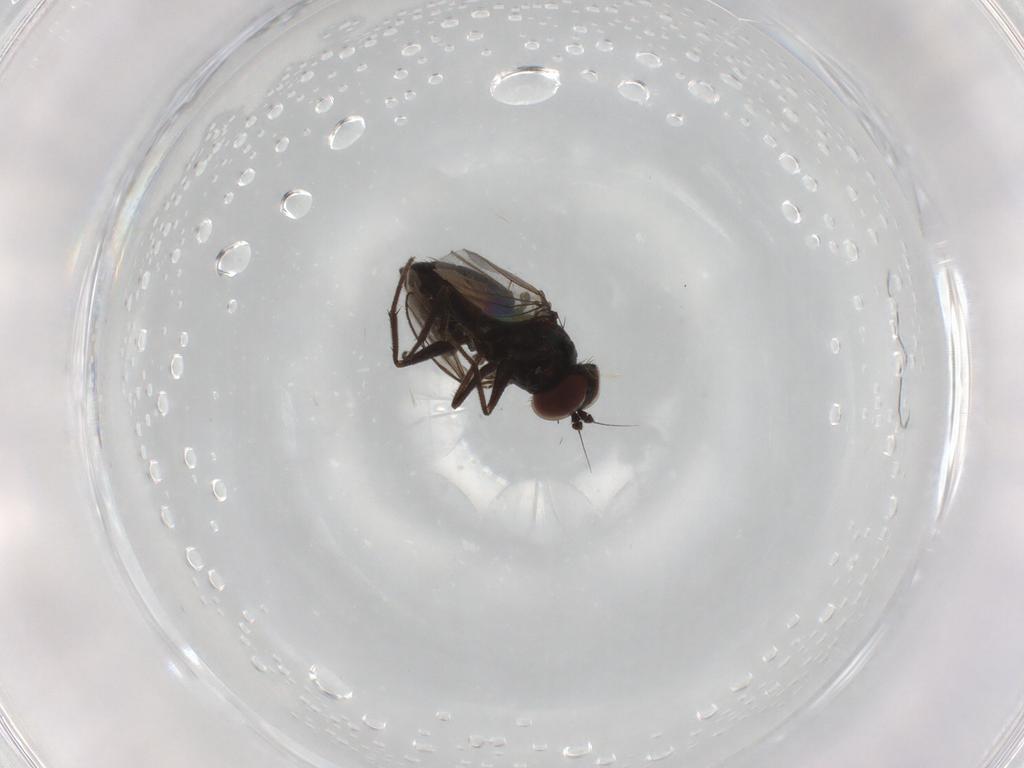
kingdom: Animalia
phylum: Arthropoda
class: Insecta
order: Diptera
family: Mycetophilidae
